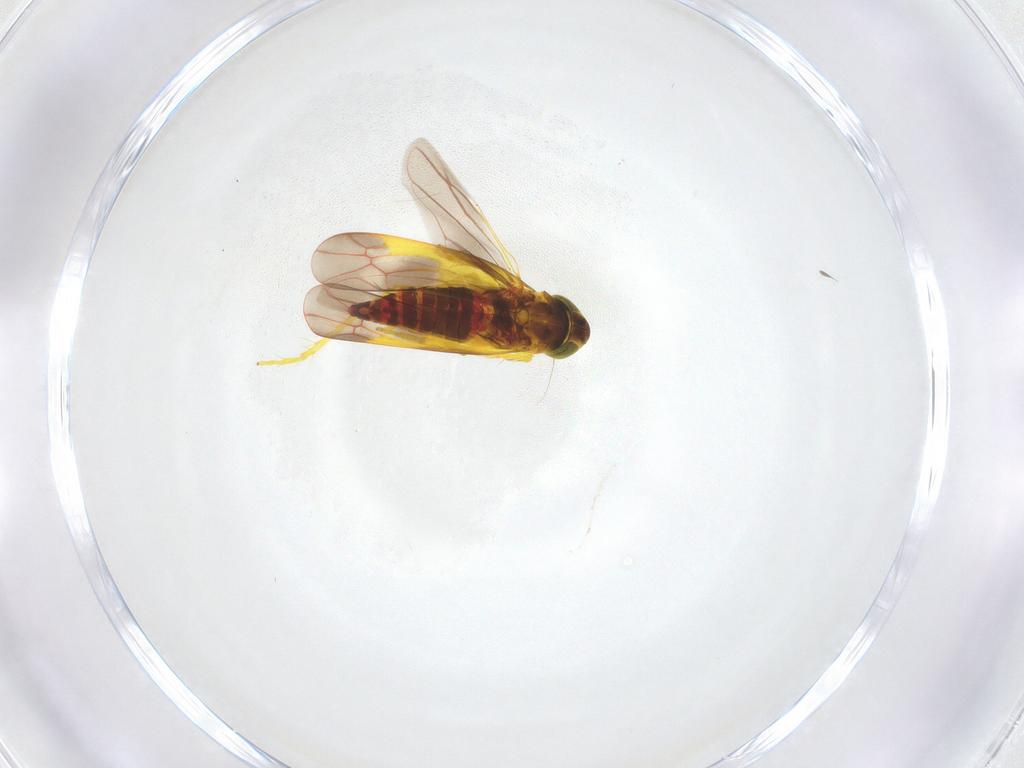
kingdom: Animalia
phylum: Arthropoda
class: Insecta
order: Hemiptera
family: Cicadellidae
